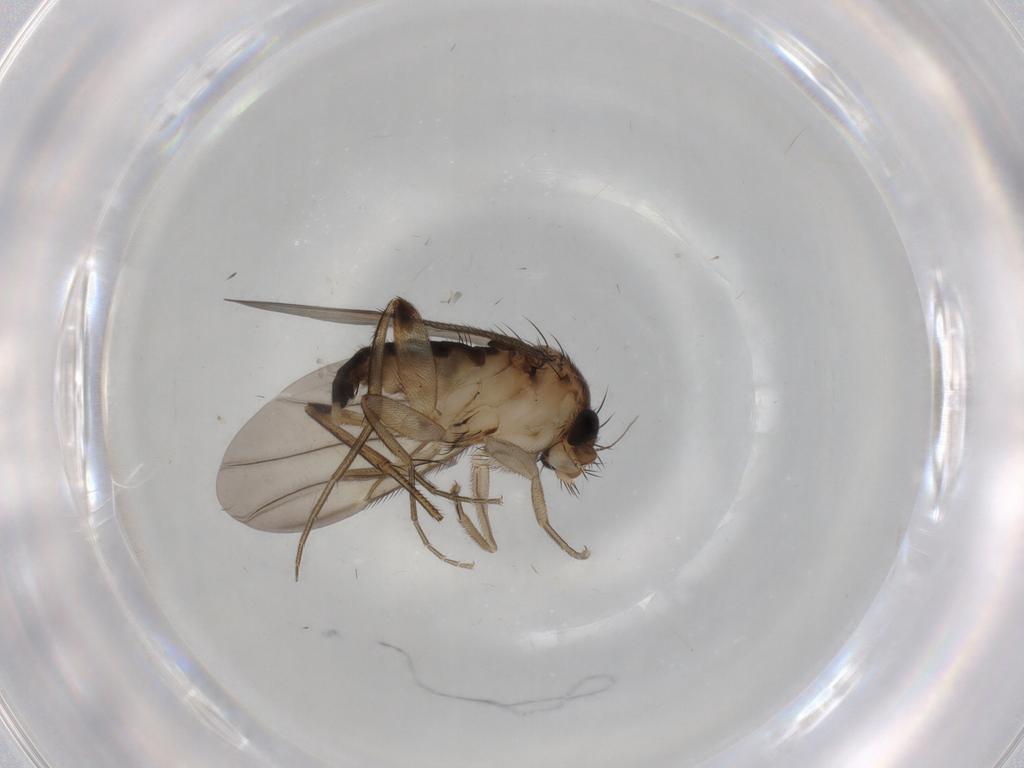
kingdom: Animalia
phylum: Arthropoda
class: Insecta
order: Diptera
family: Phoridae
